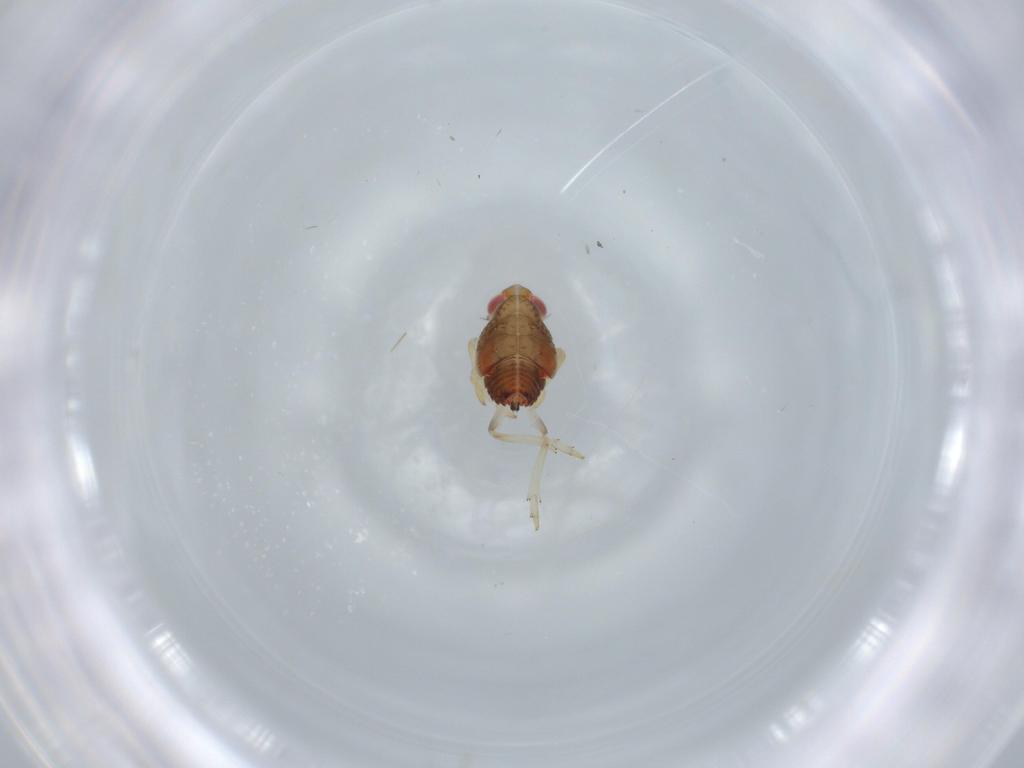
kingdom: Animalia
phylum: Arthropoda
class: Insecta
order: Hemiptera
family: Issidae
